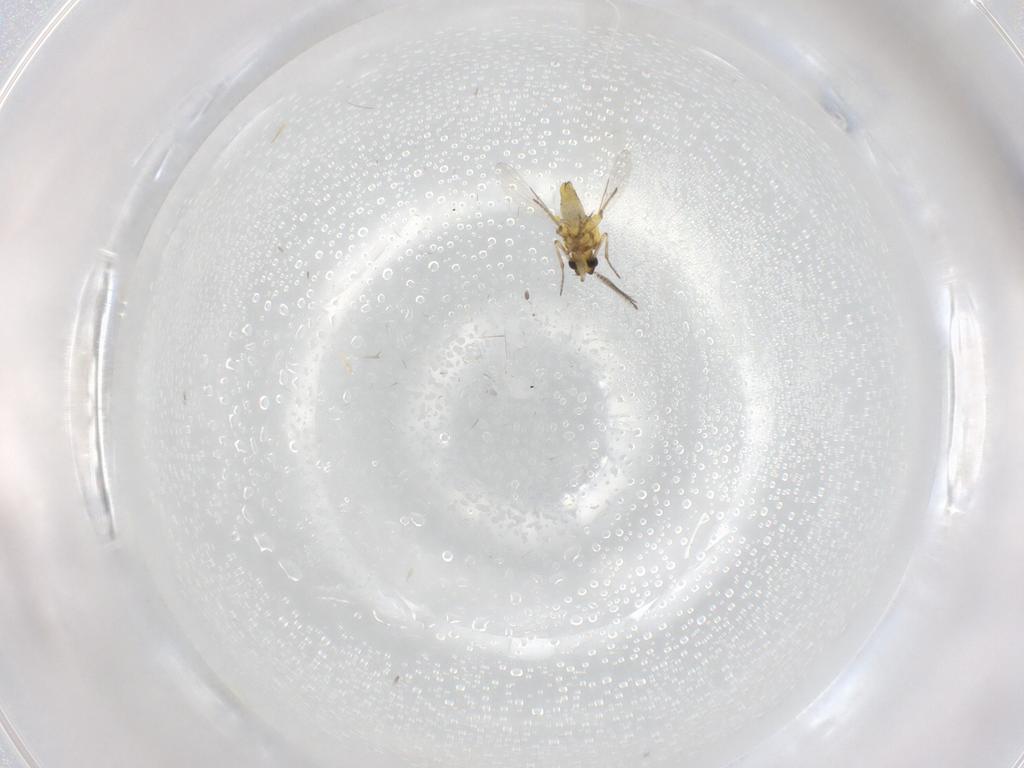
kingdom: Animalia
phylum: Arthropoda
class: Insecta
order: Diptera
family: Ceratopogonidae
